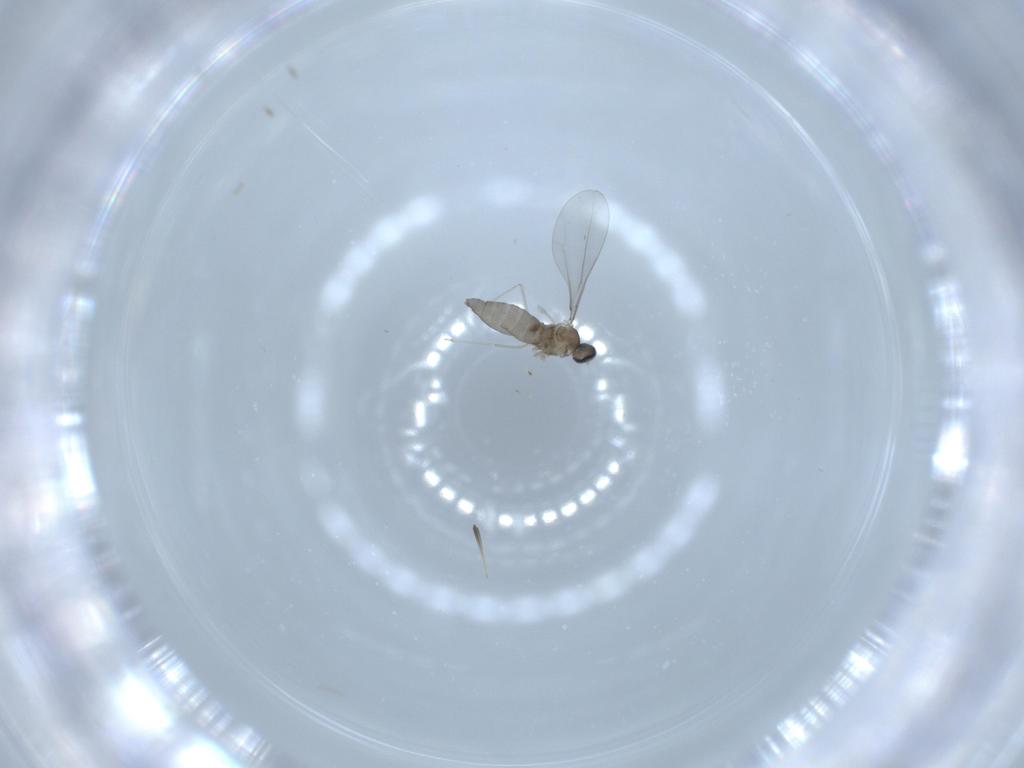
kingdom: Animalia
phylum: Arthropoda
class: Insecta
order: Diptera
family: Cecidomyiidae
